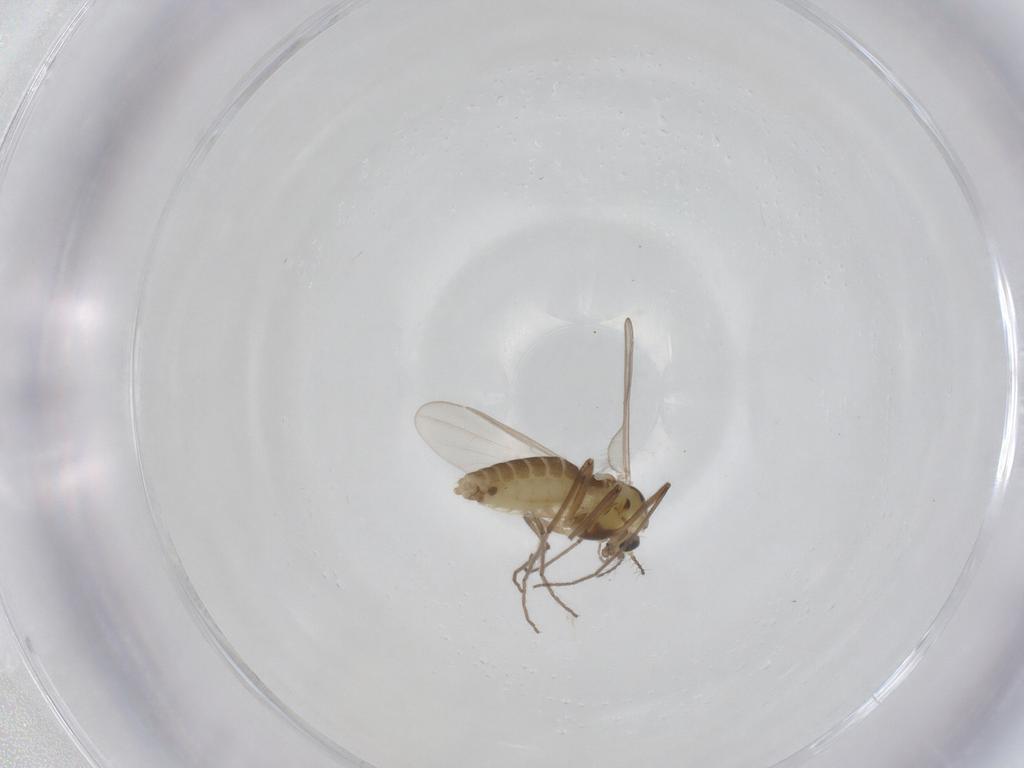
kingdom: Animalia
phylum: Arthropoda
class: Insecta
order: Diptera
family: Chironomidae
